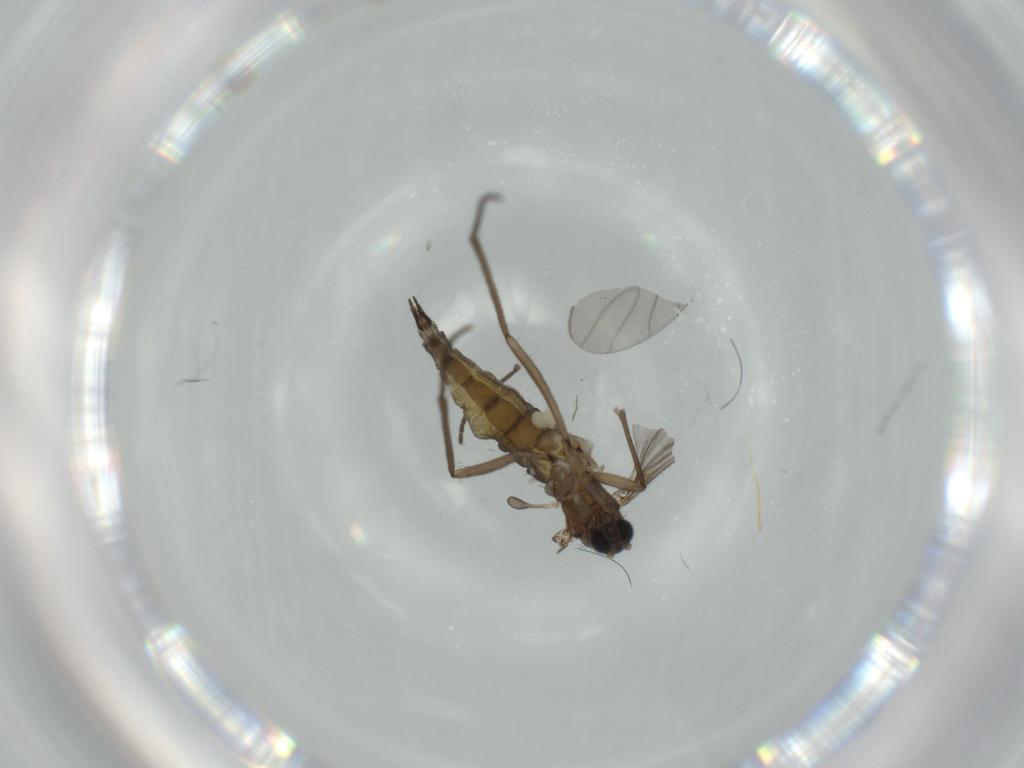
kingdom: Animalia
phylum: Arthropoda
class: Insecta
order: Diptera
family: Sciaridae
